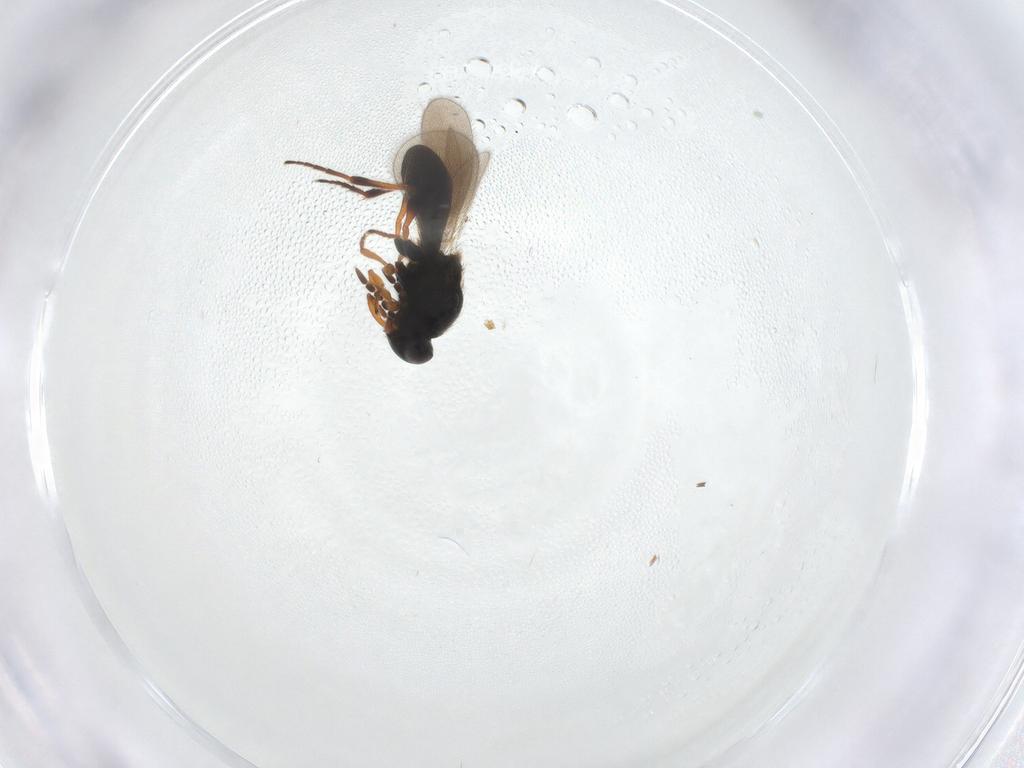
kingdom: Animalia
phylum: Arthropoda
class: Insecta
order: Hymenoptera
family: Platygastridae
